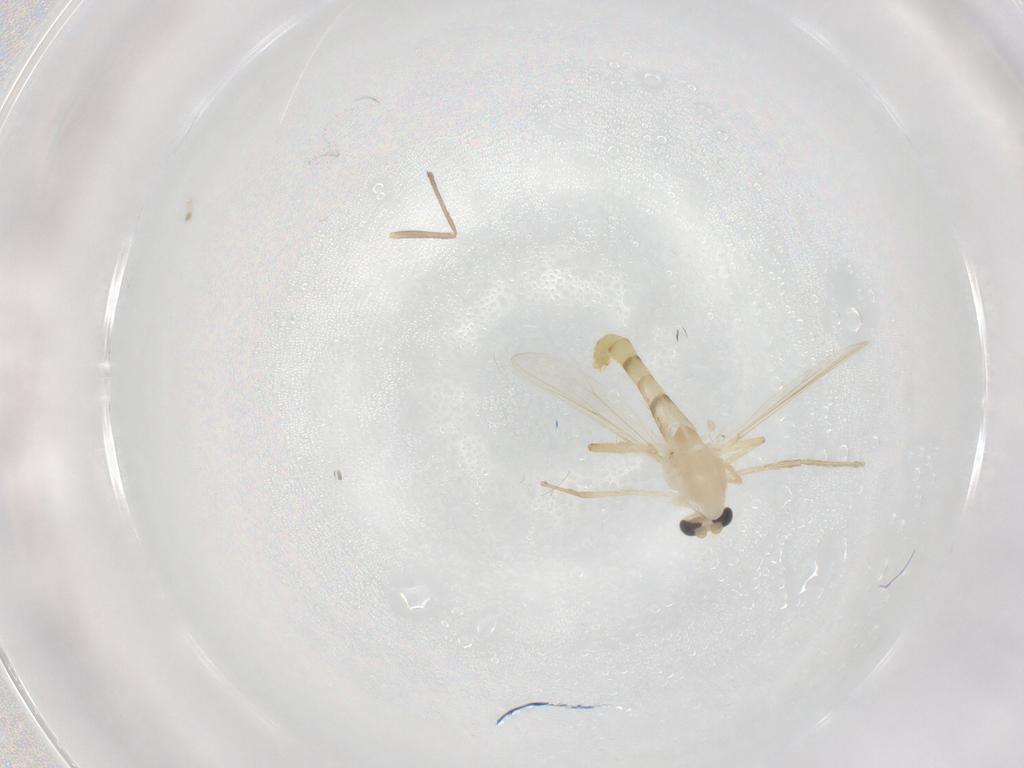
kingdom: Animalia
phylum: Arthropoda
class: Insecta
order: Diptera
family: Chironomidae
